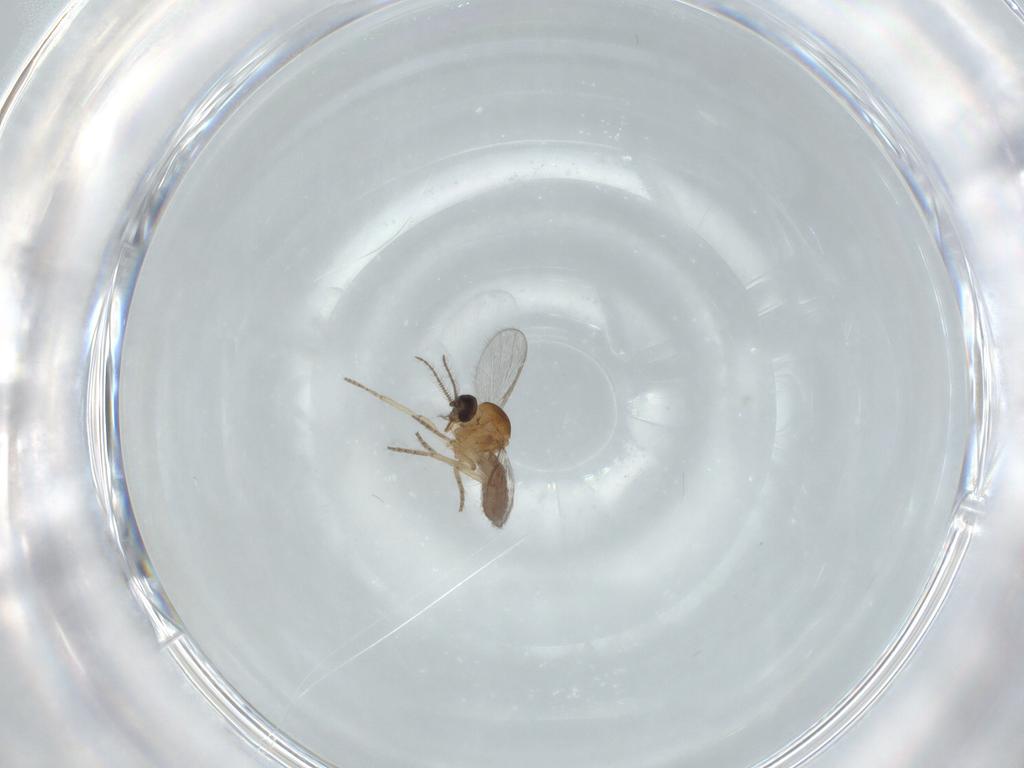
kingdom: Animalia
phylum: Arthropoda
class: Insecta
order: Diptera
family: Ceratopogonidae
